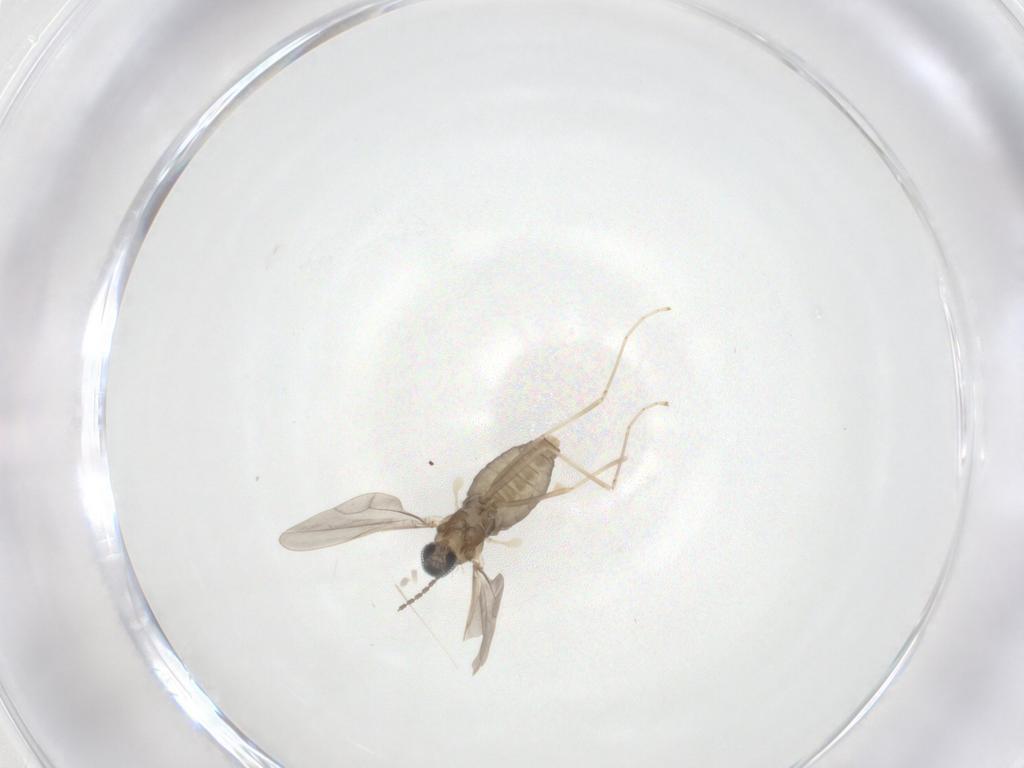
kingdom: Animalia
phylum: Arthropoda
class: Insecta
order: Diptera
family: Cecidomyiidae
